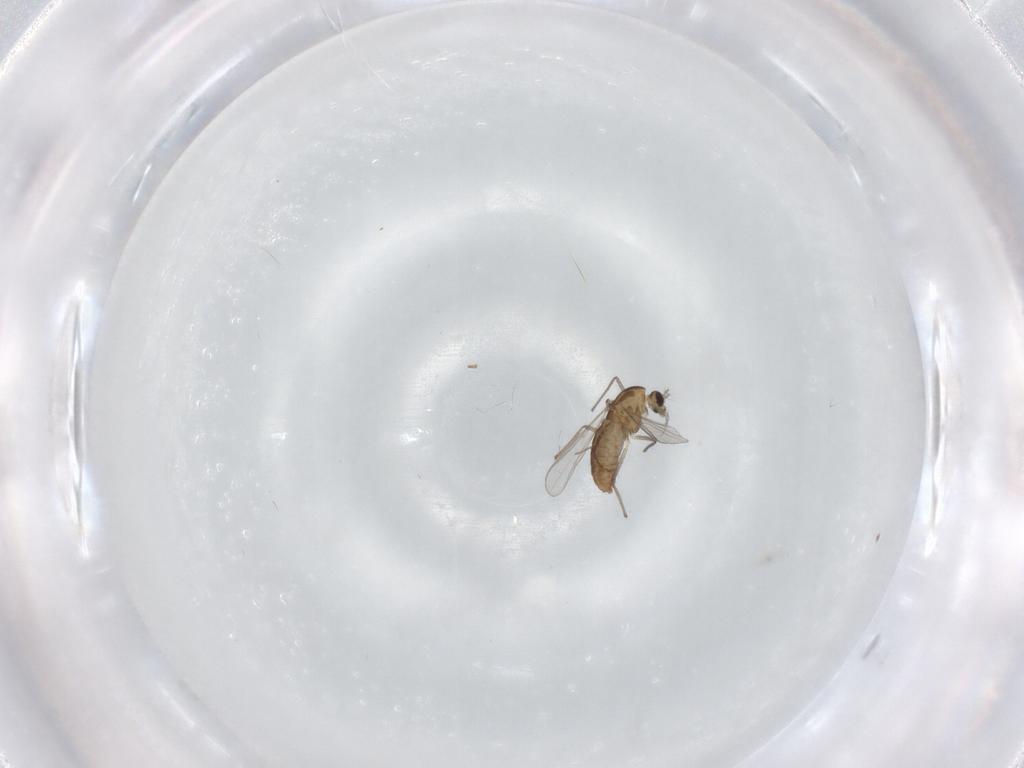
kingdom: Animalia
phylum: Arthropoda
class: Insecta
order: Diptera
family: Chironomidae
